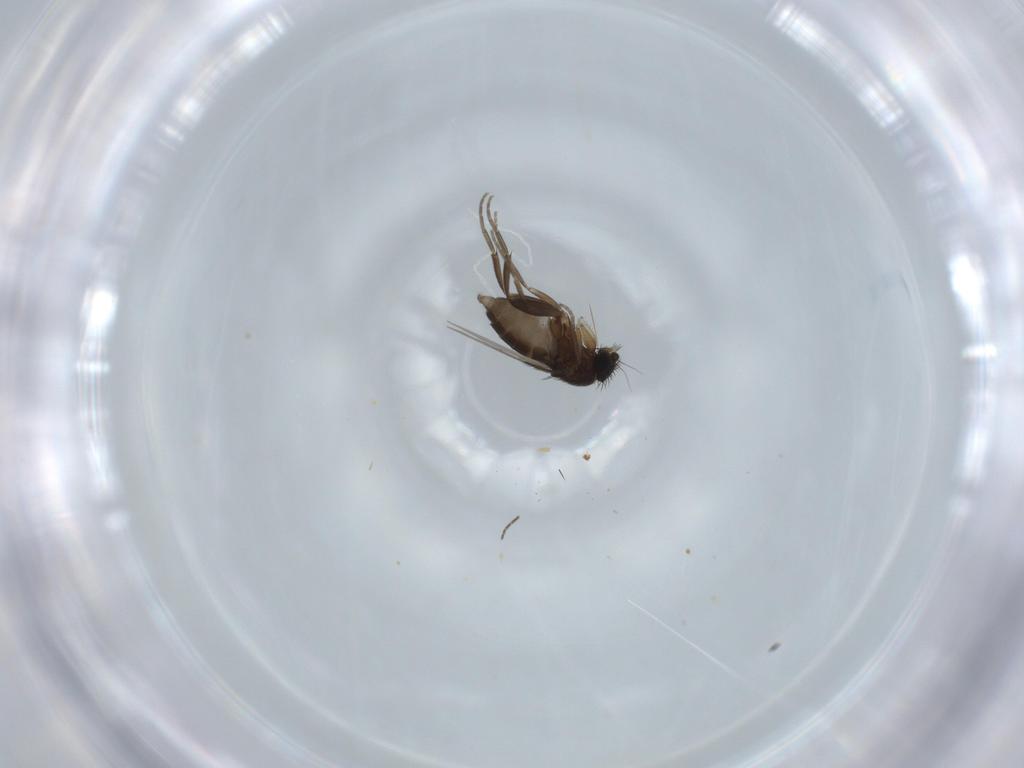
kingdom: Animalia
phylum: Arthropoda
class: Insecta
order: Diptera
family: Phoridae
